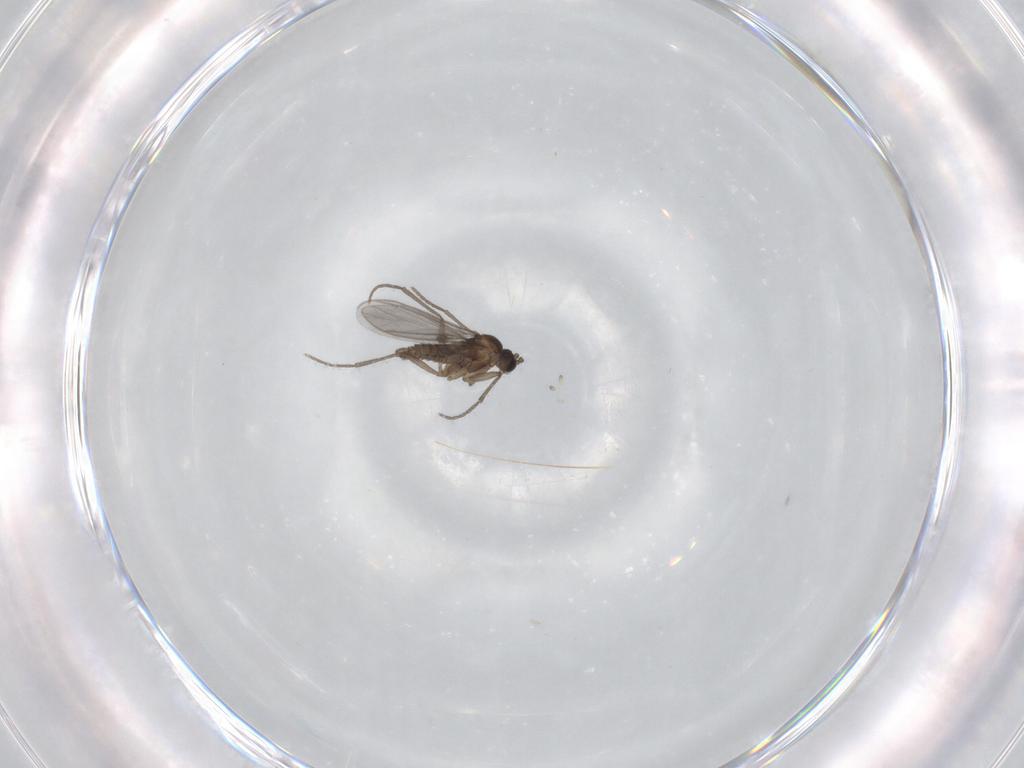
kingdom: Animalia
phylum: Arthropoda
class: Insecta
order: Diptera
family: Sciaridae
